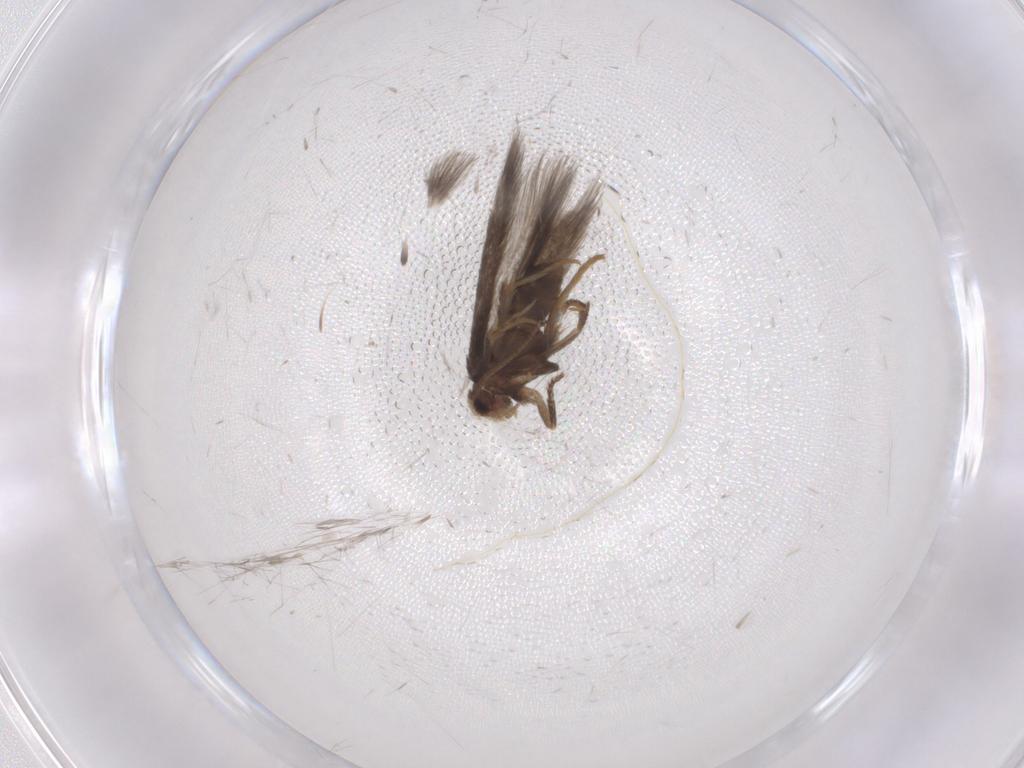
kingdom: Animalia
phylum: Arthropoda
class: Insecta
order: Lepidoptera
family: Nepticulidae
